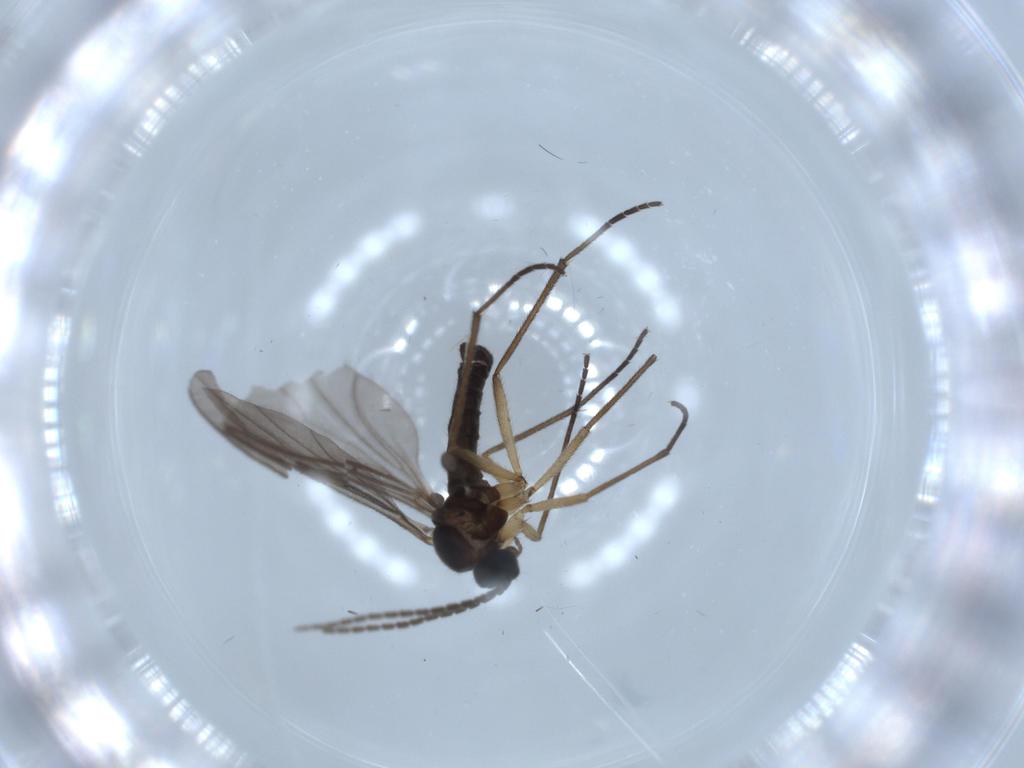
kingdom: Animalia
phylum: Arthropoda
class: Insecta
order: Diptera
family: Sciaridae
